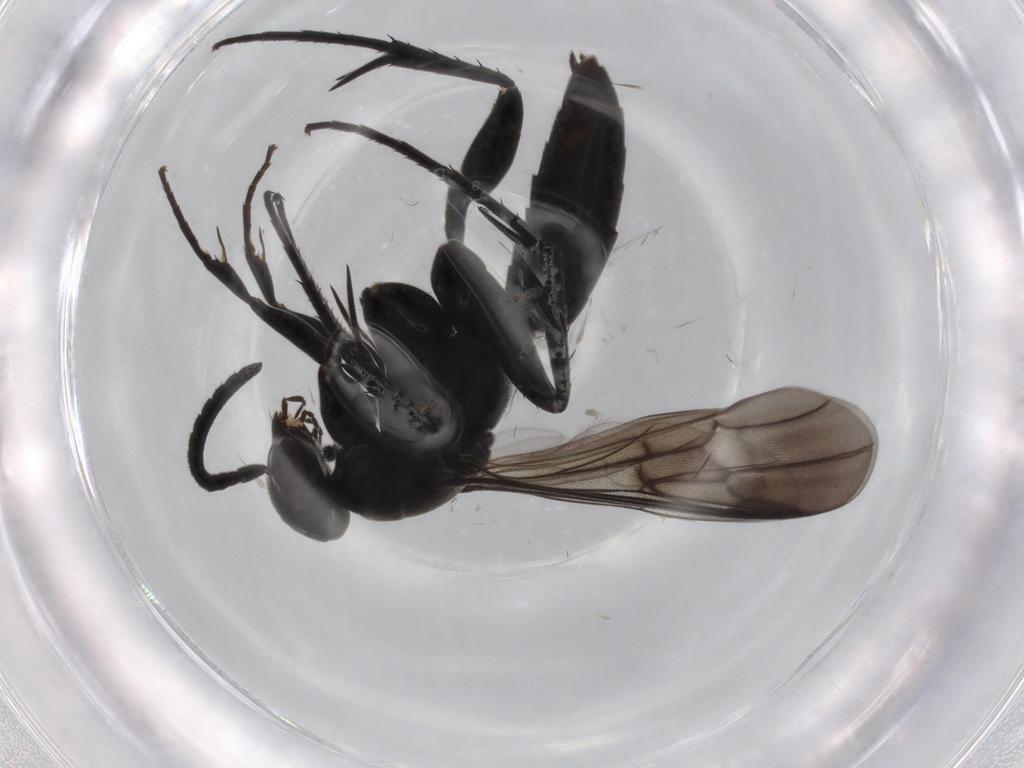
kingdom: Animalia
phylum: Arthropoda
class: Insecta
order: Hymenoptera
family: Pompilidae
